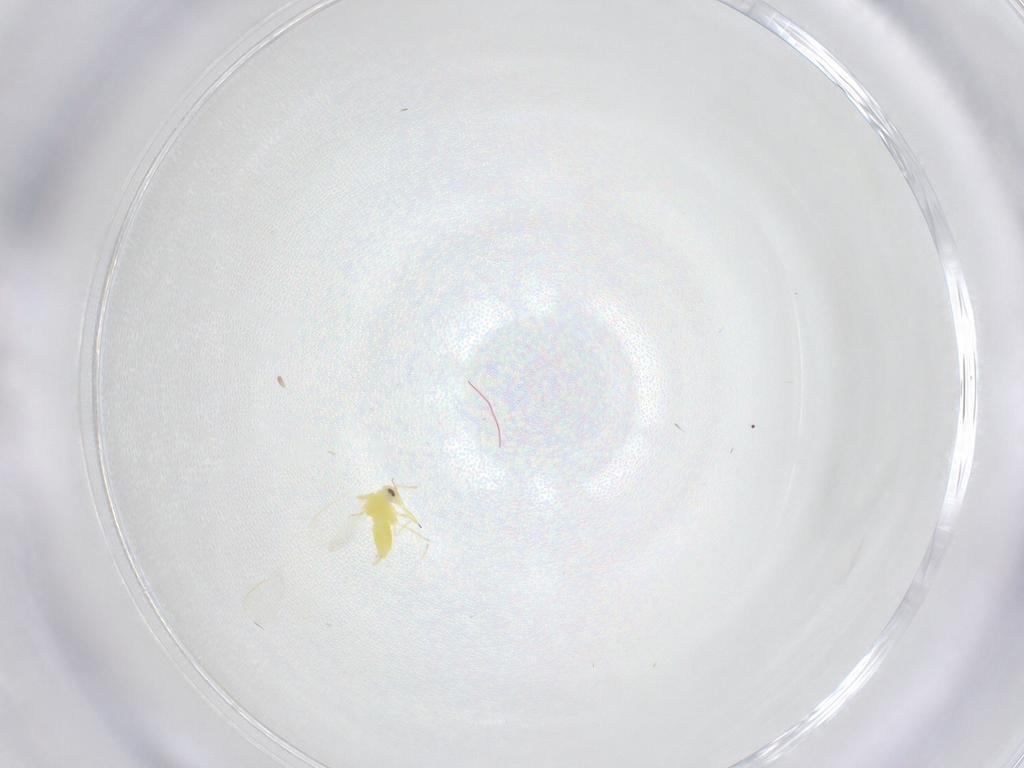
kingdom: Animalia
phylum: Arthropoda
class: Insecta
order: Hemiptera
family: Aleyrodidae
